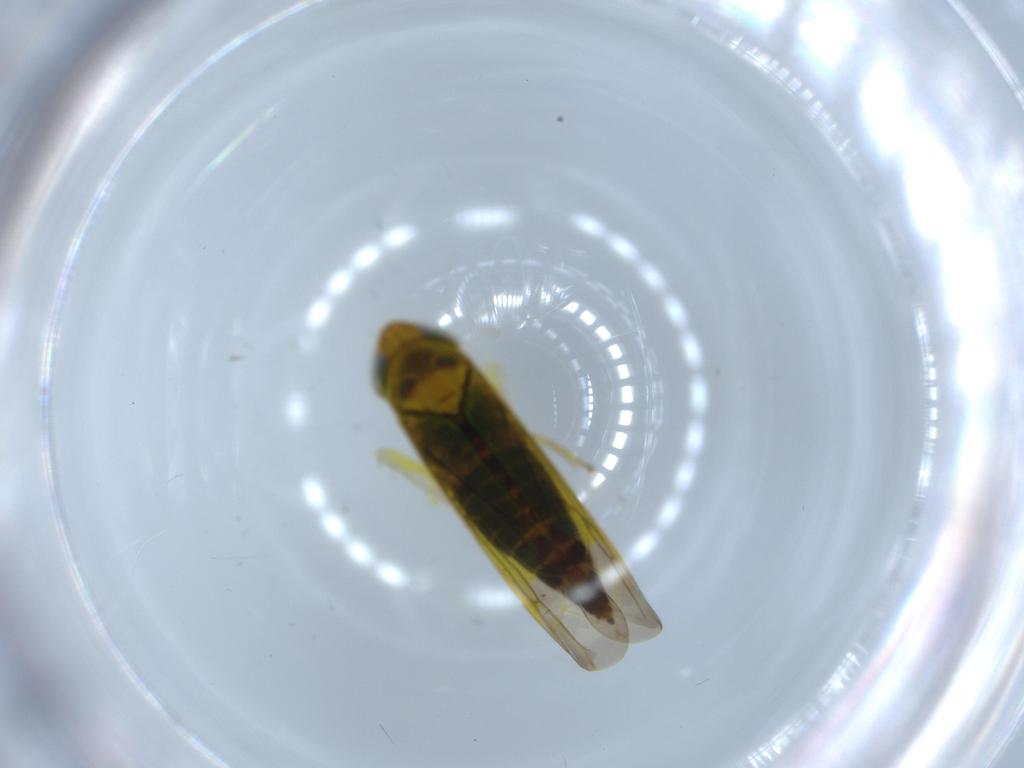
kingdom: Animalia
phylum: Arthropoda
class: Insecta
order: Hemiptera
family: Cicadellidae
